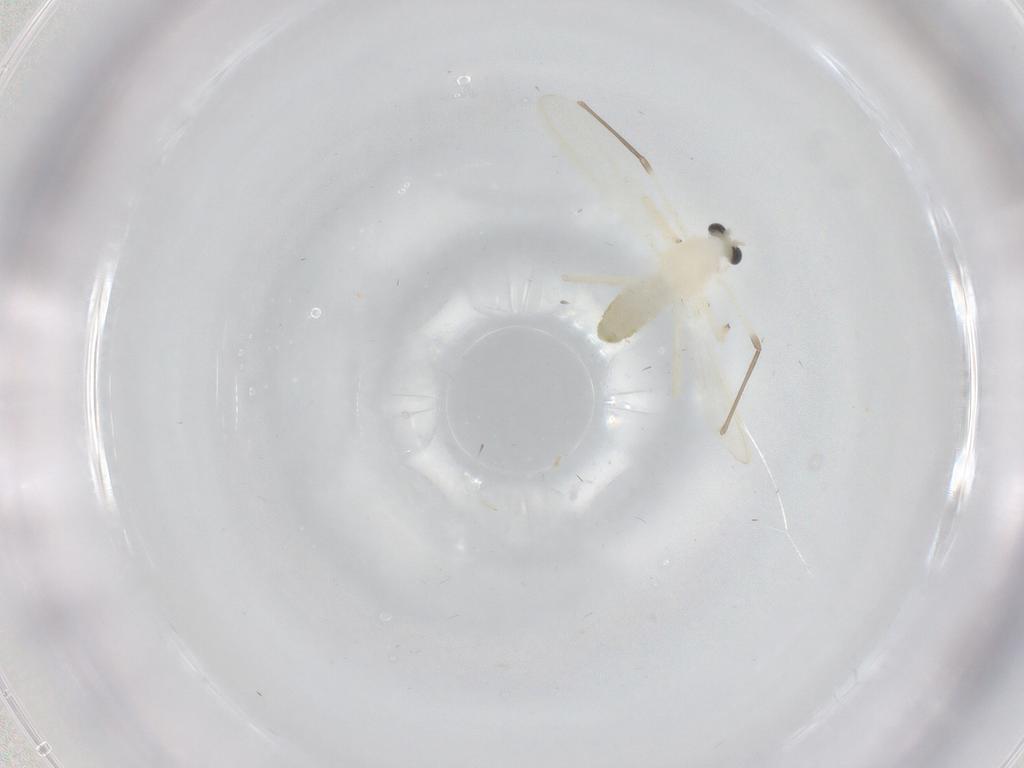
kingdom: Animalia
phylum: Arthropoda
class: Insecta
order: Diptera
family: Chironomidae
